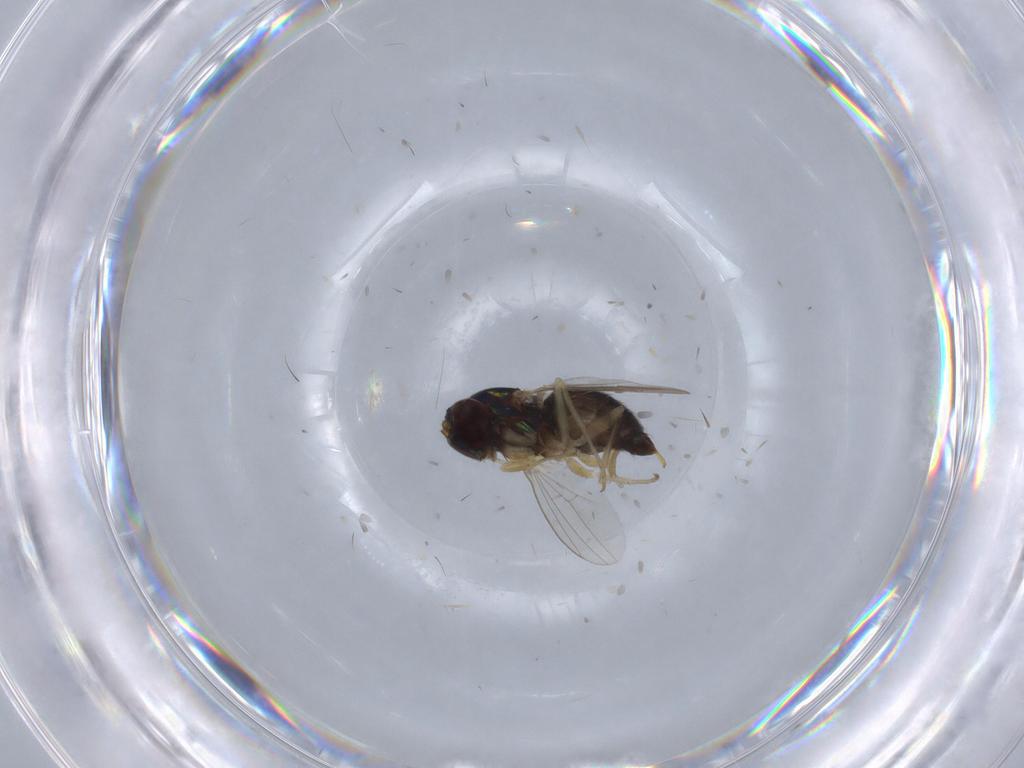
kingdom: Animalia
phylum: Arthropoda
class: Insecta
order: Diptera
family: Dolichopodidae
